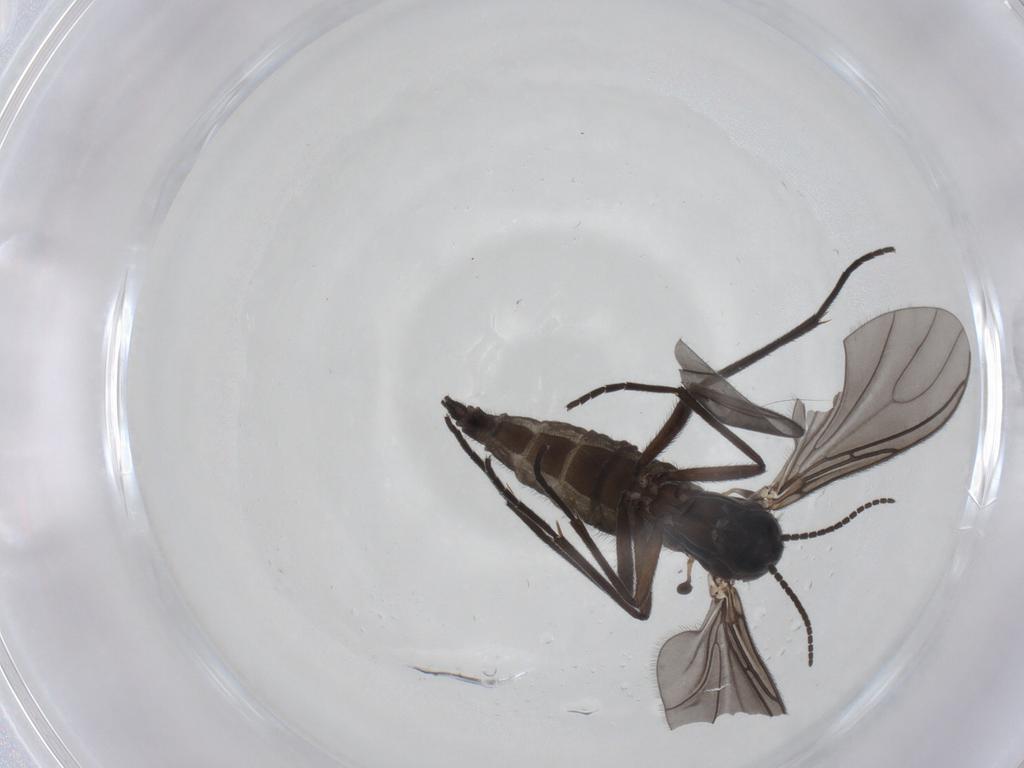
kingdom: Animalia
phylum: Arthropoda
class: Insecta
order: Diptera
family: Sciaridae
